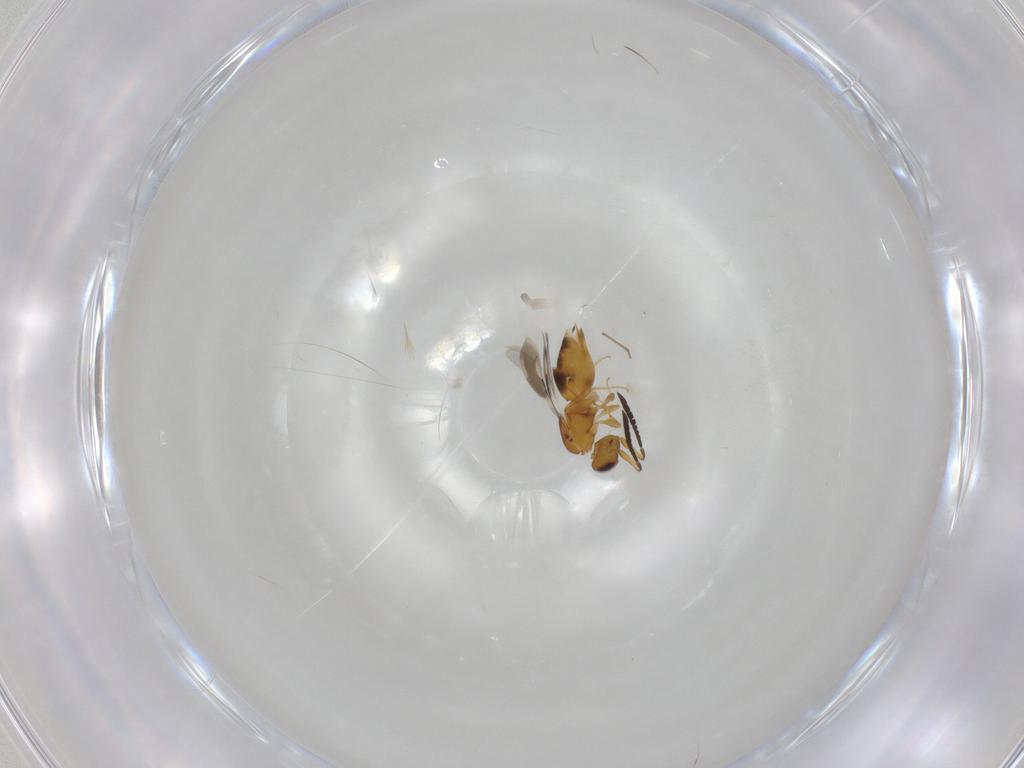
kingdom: Animalia
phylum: Arthropoda
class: Insecta
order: Hymenoptera
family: Ceraphronidae
